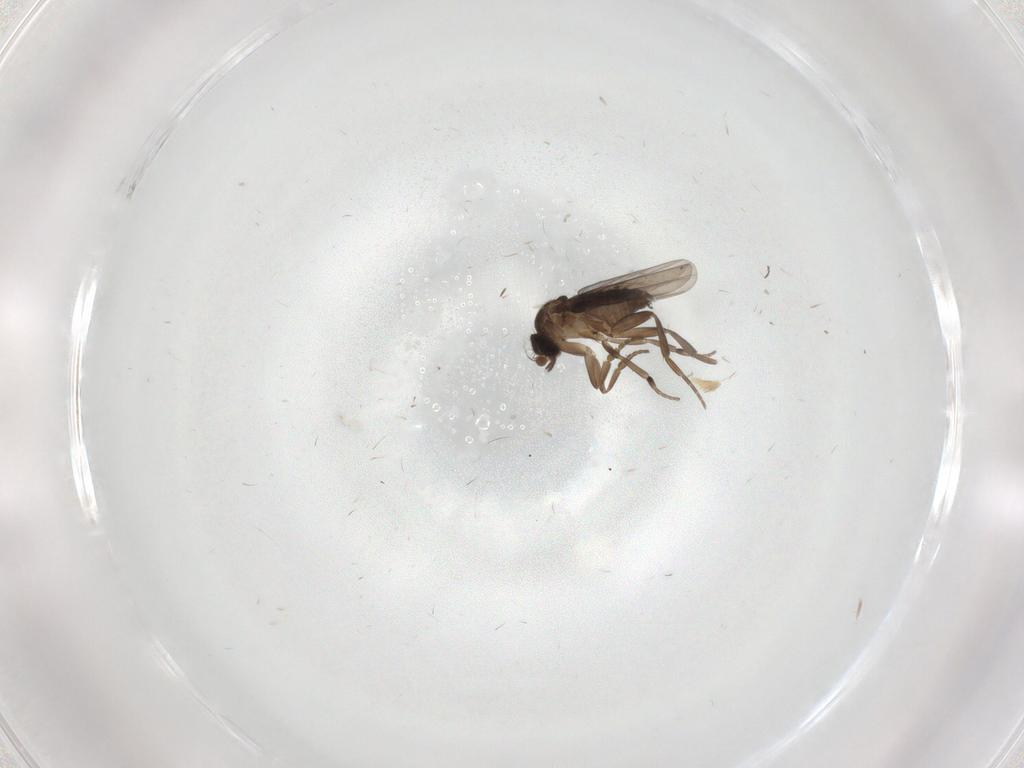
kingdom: Animalia
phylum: Arthropoda
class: Insecta
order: Diptera
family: Phoridae
